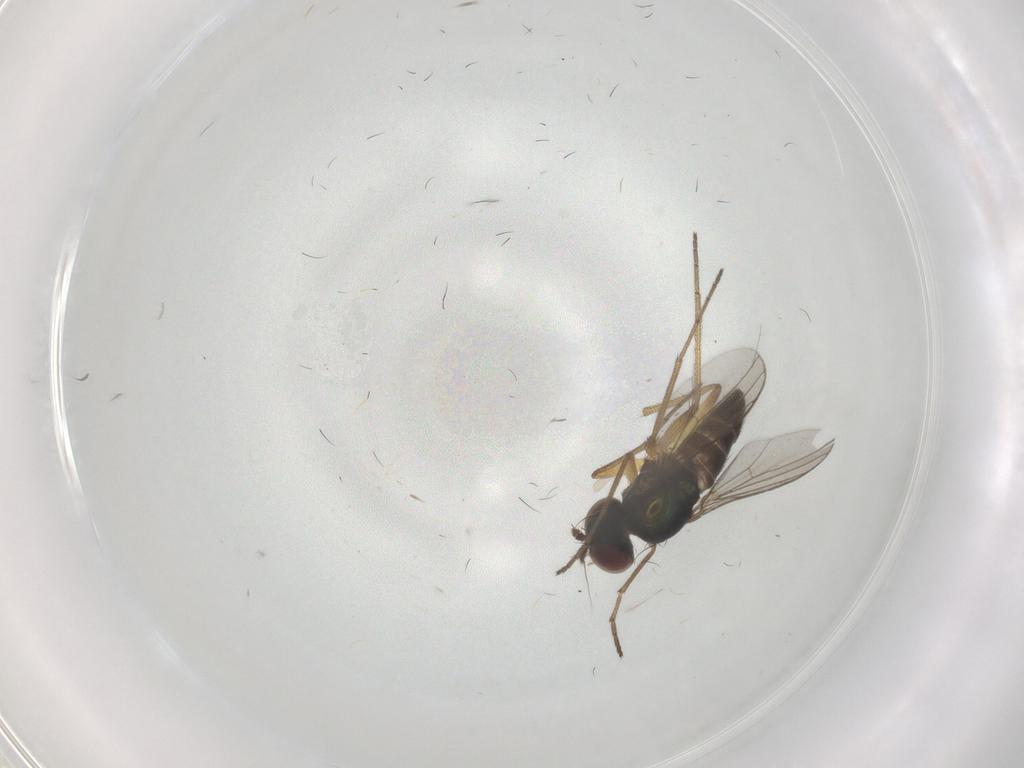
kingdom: Animalia
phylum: Arthropoda
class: Insecta
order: Diptera
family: Dolichopodidae
